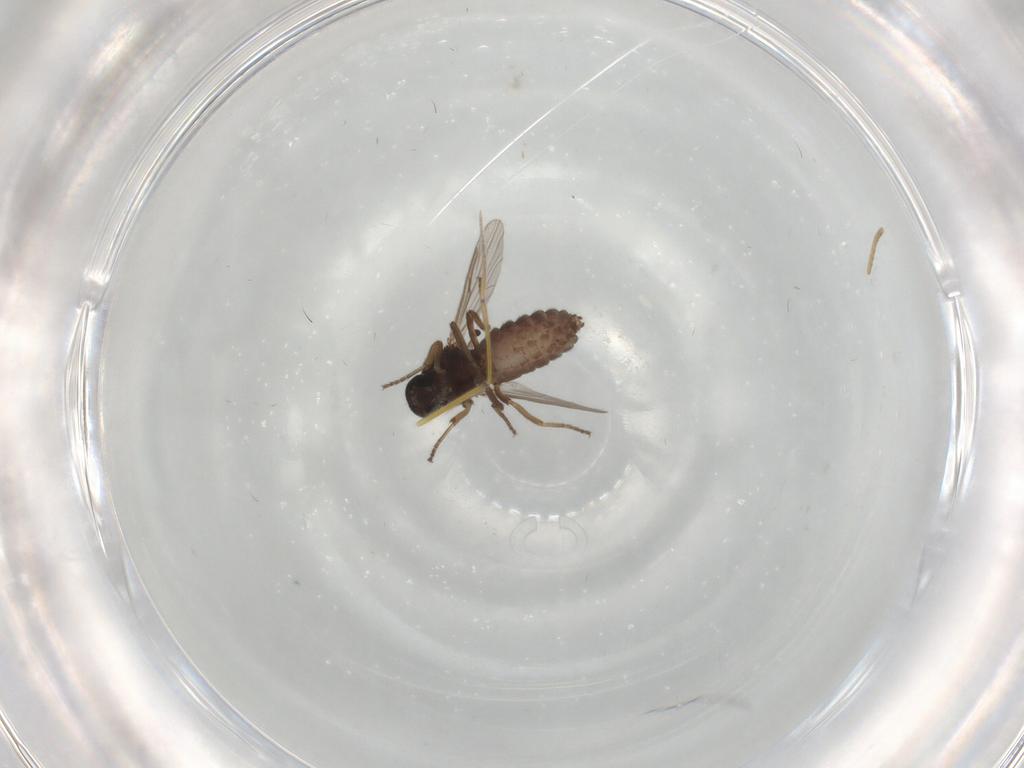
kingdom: Animalia
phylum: Arthropoda
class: Insecta
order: Diptera
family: Ceratopogonidae
